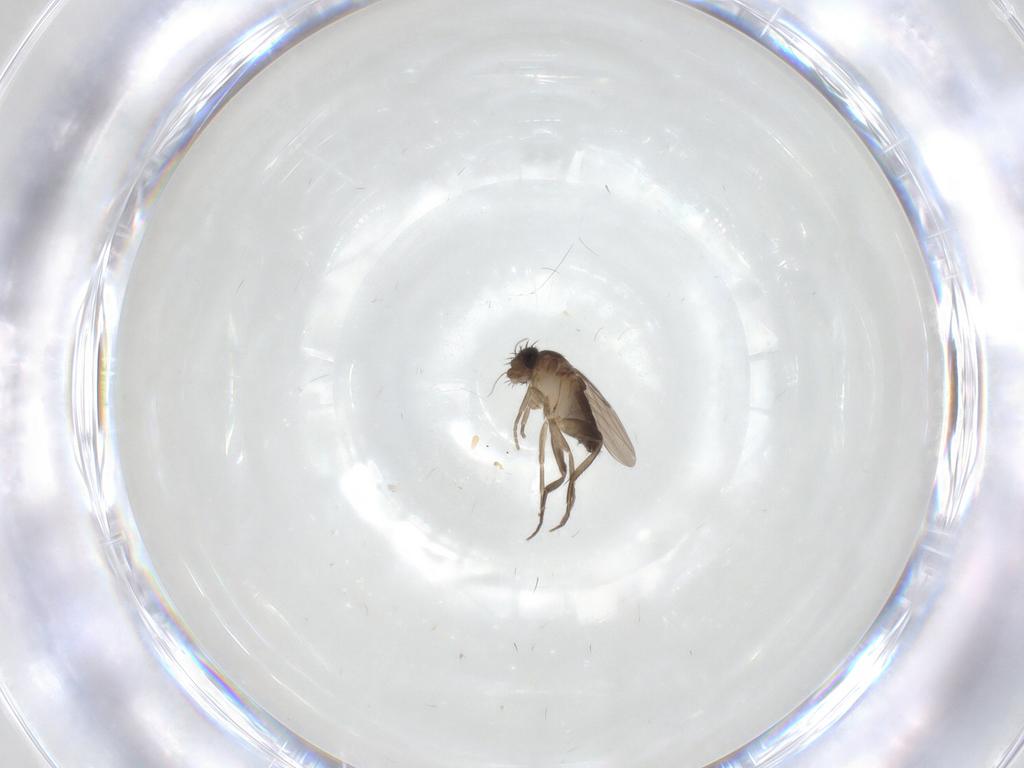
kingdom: Animalia
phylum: Arthropoda
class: Insecta
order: Diptera
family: Phoridae
